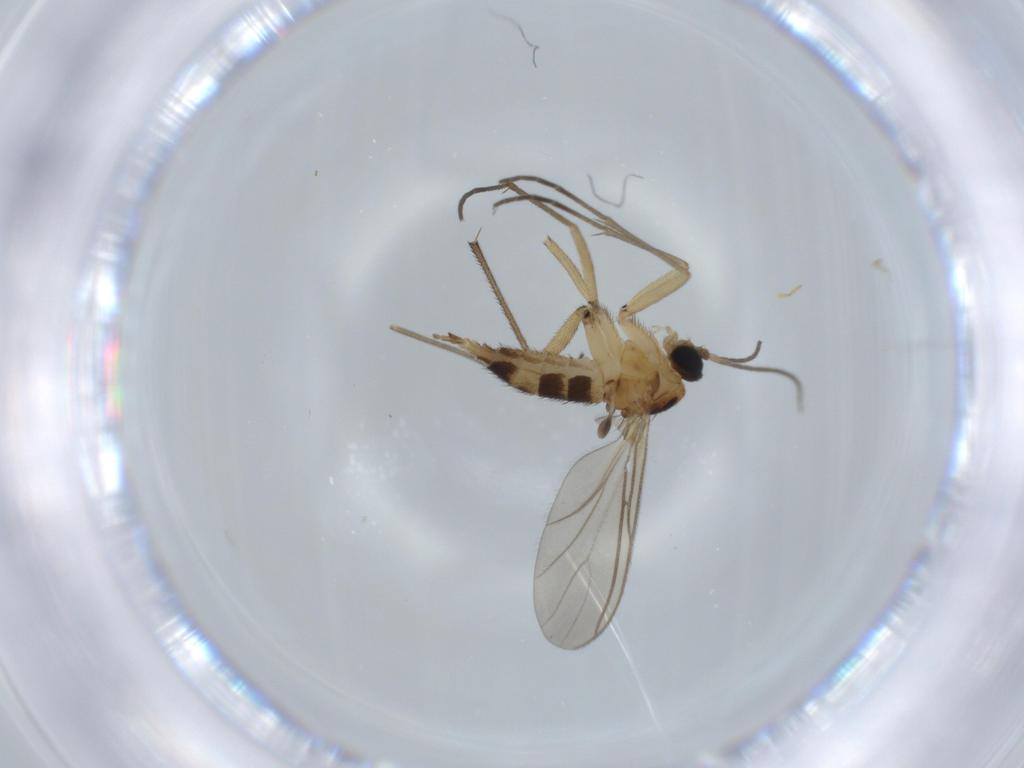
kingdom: Animalia
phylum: Arthropoda
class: Insecta
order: Diptera
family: Sciaridae
